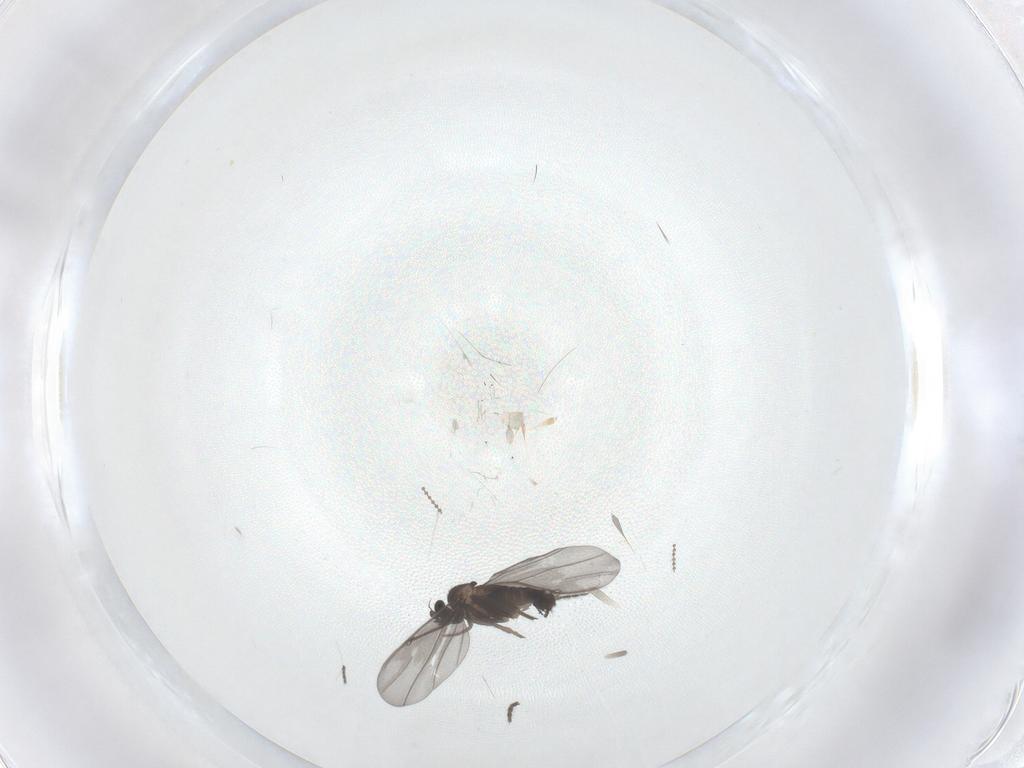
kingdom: Animalia
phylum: Arthropoda
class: Insecta
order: Diptera
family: Phoridae
